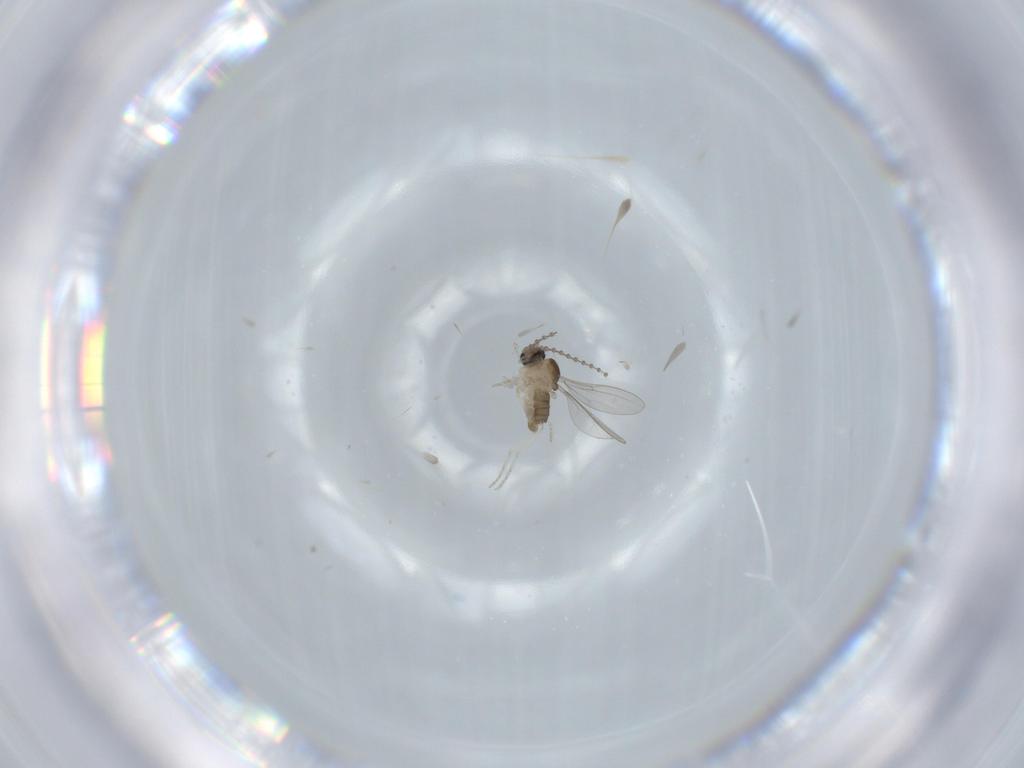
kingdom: Animalia
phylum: Arthropoda
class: Insecta
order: Diptera
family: Cecidomyiidae
